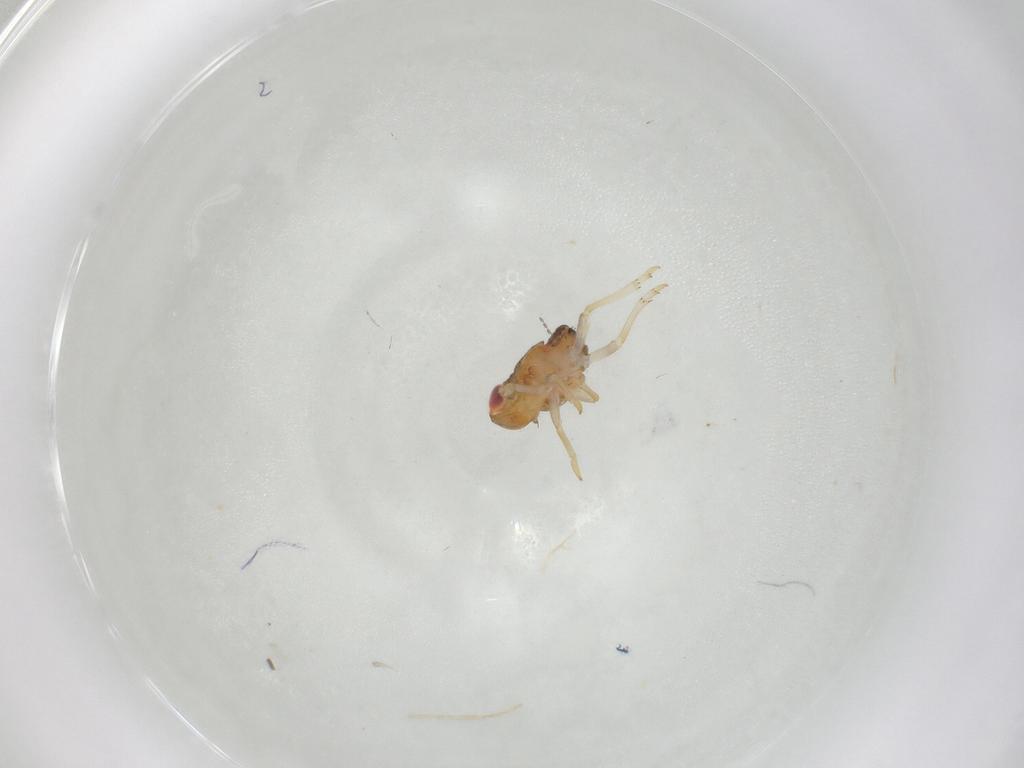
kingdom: Animalia
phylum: Arthropoda
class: Insecta
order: Hemiptera
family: Issidae
